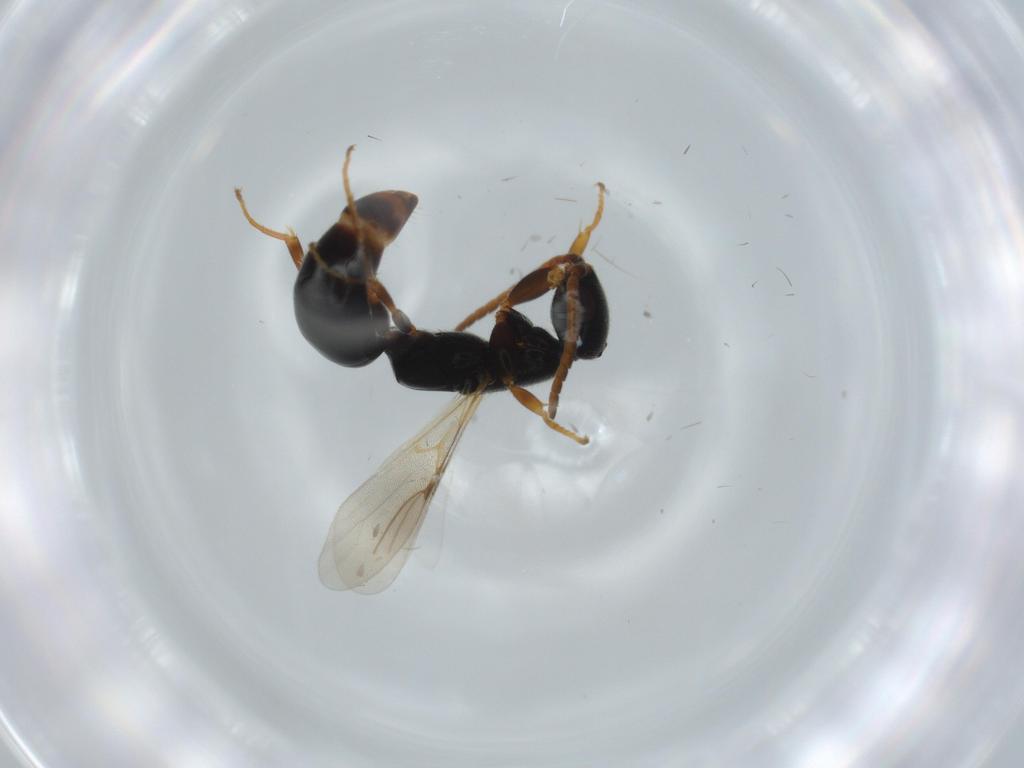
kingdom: Animalia
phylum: Arthropoda
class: Insecta
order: Hymenoptera
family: Bethylidae
